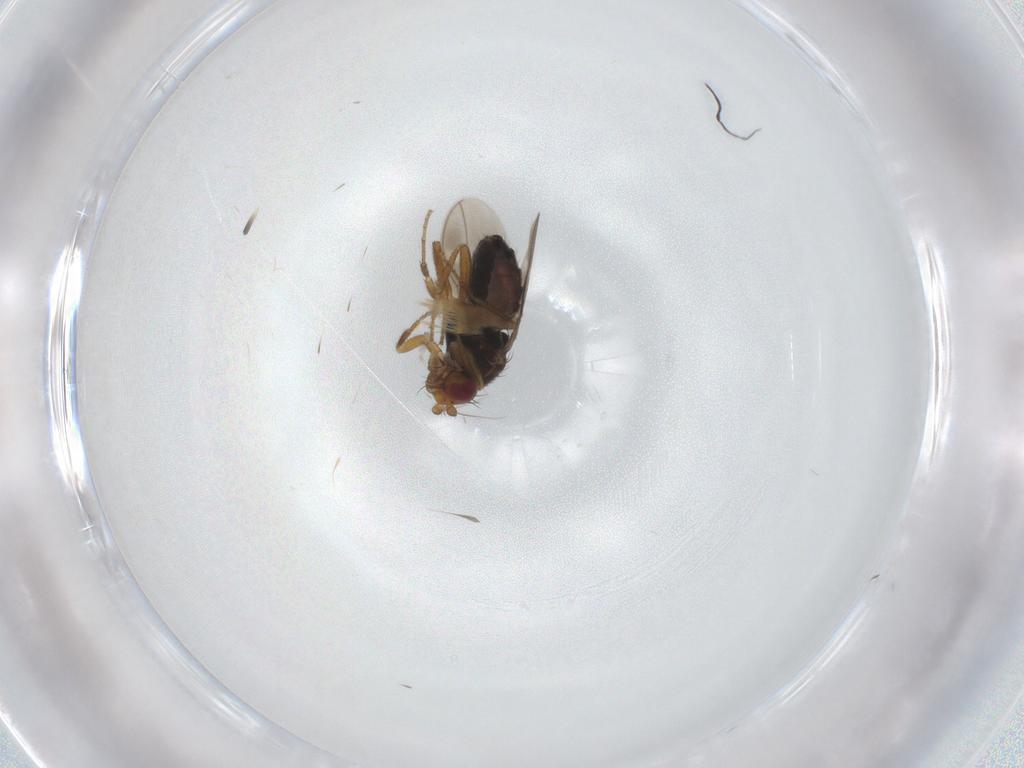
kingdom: Animalia
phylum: Arthropoda
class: Insecta
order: Diptera
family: Sphaeroceridae
